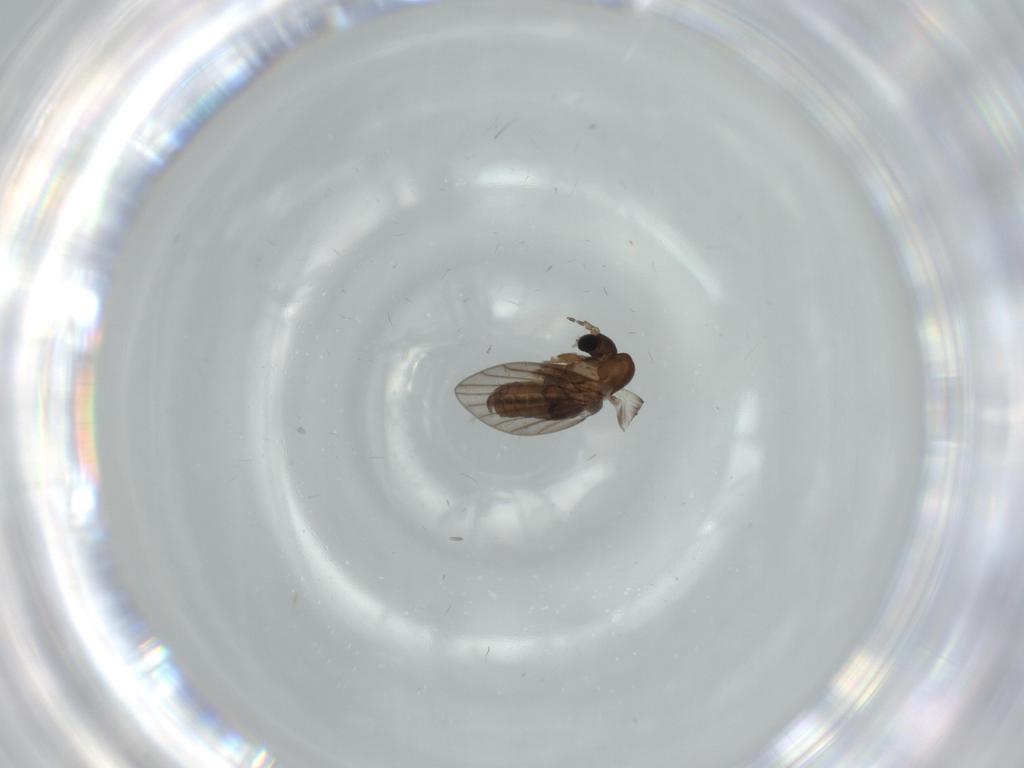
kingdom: Animalia
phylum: Arthropoda
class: Insecta
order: Diptera
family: Psychodidae
